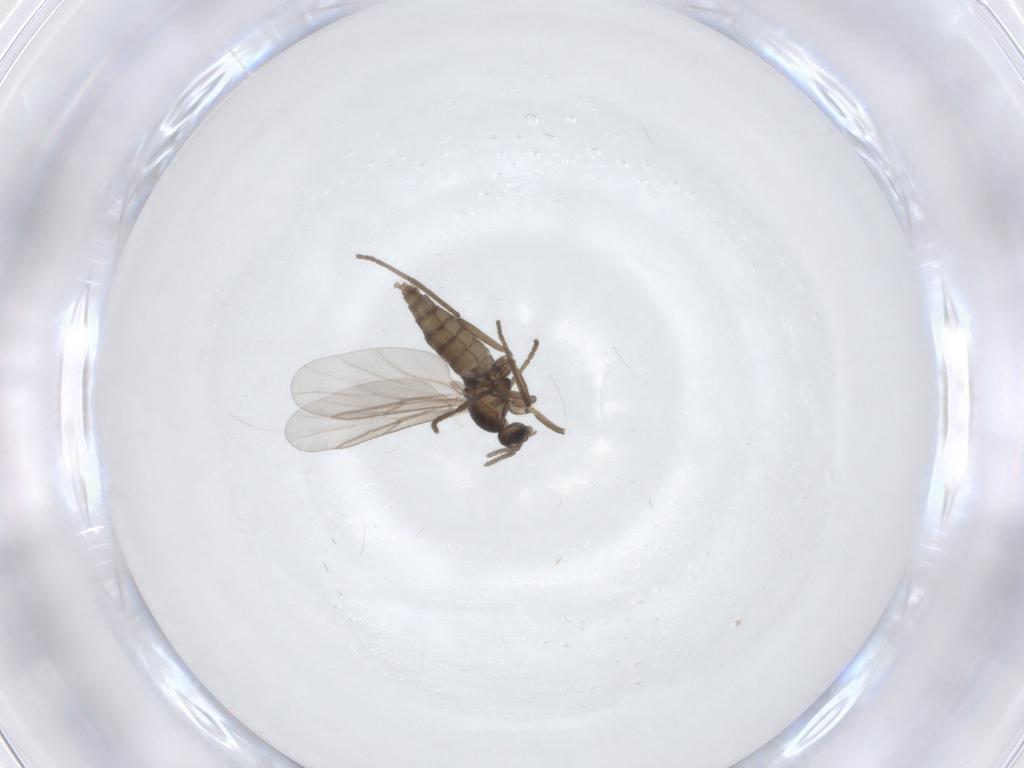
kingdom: Animalia
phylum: Arthropoda
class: Insecta
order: Diptera
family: Cecidomyiidae
